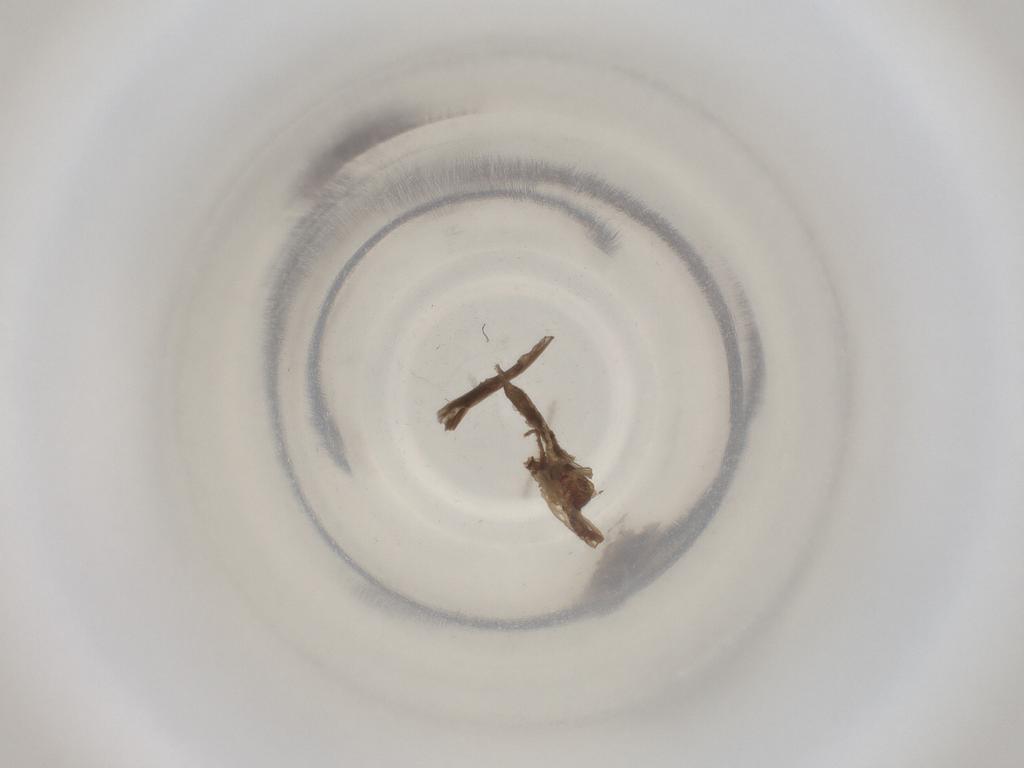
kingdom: Animalia
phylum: Arthropoda
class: Insecta
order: Diptera
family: Cecidomyiidae
